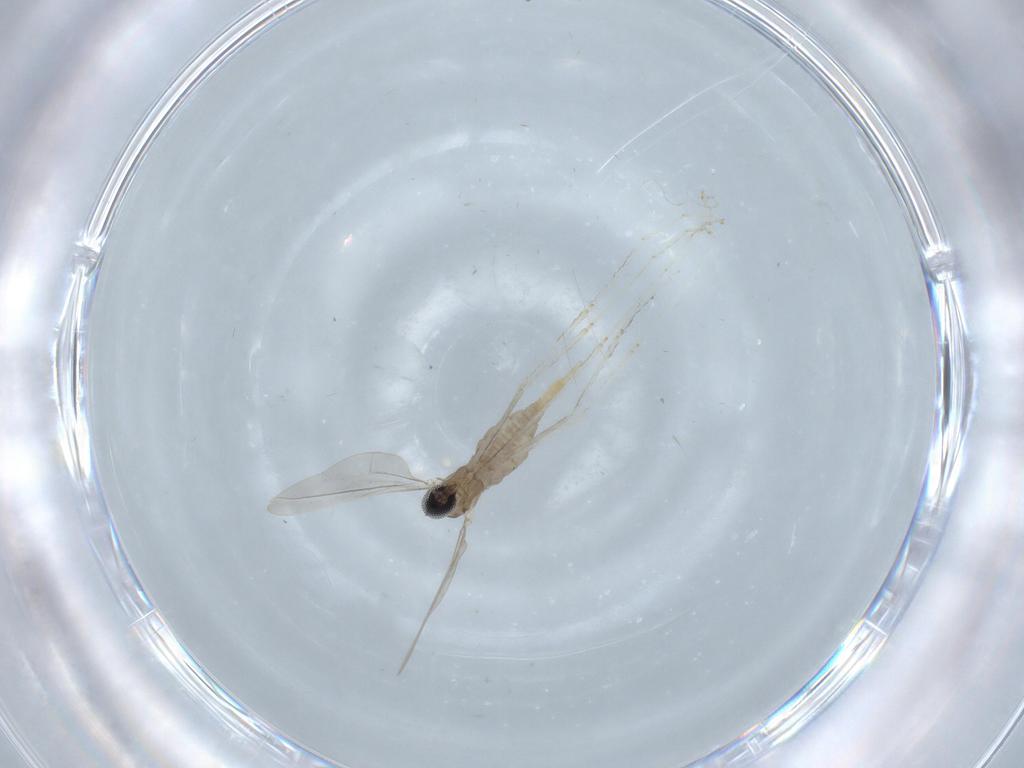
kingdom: Animalia
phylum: Arthropoda
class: Insecta
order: Diptera
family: Cecidomyiidae
